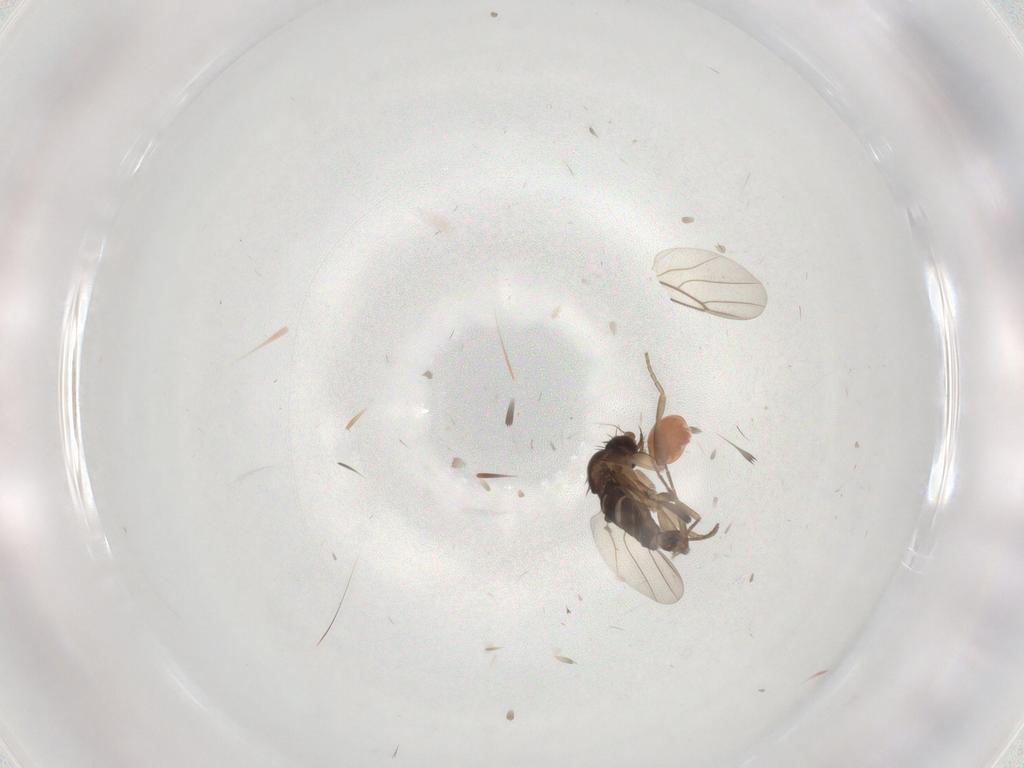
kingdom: Animalia
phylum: Arthropoda
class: Insecta
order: Diptera
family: Phoridae
